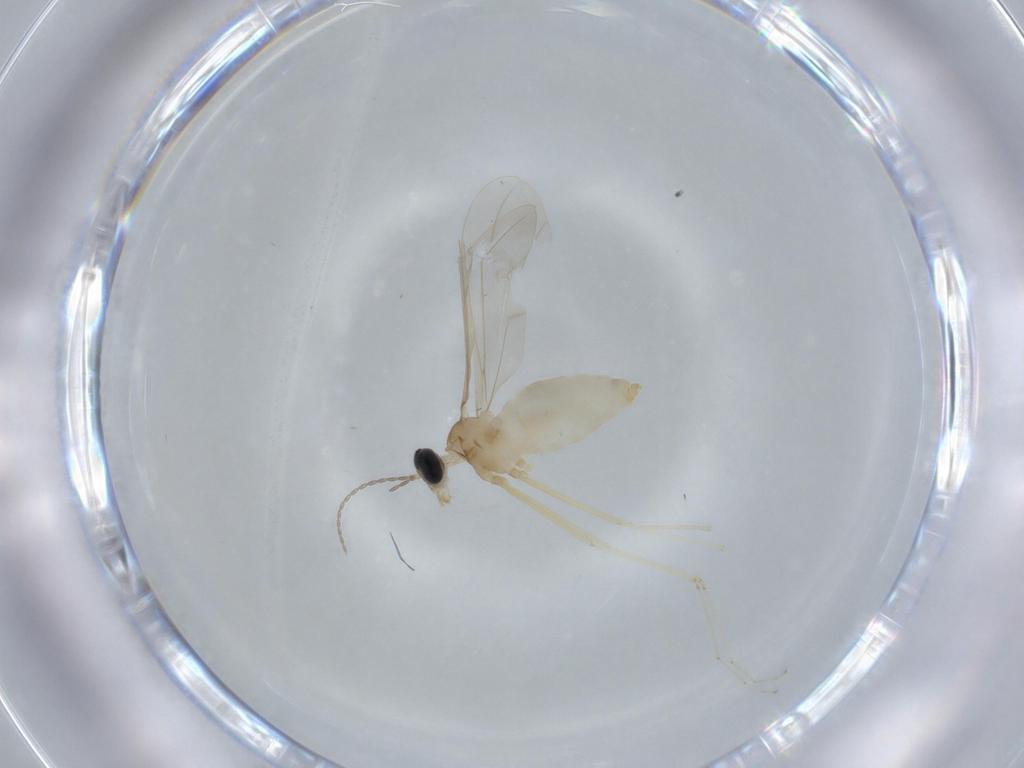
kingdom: Animalia
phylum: Arthropoda
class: Insecta
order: Diptera
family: Cecidomyiidae
